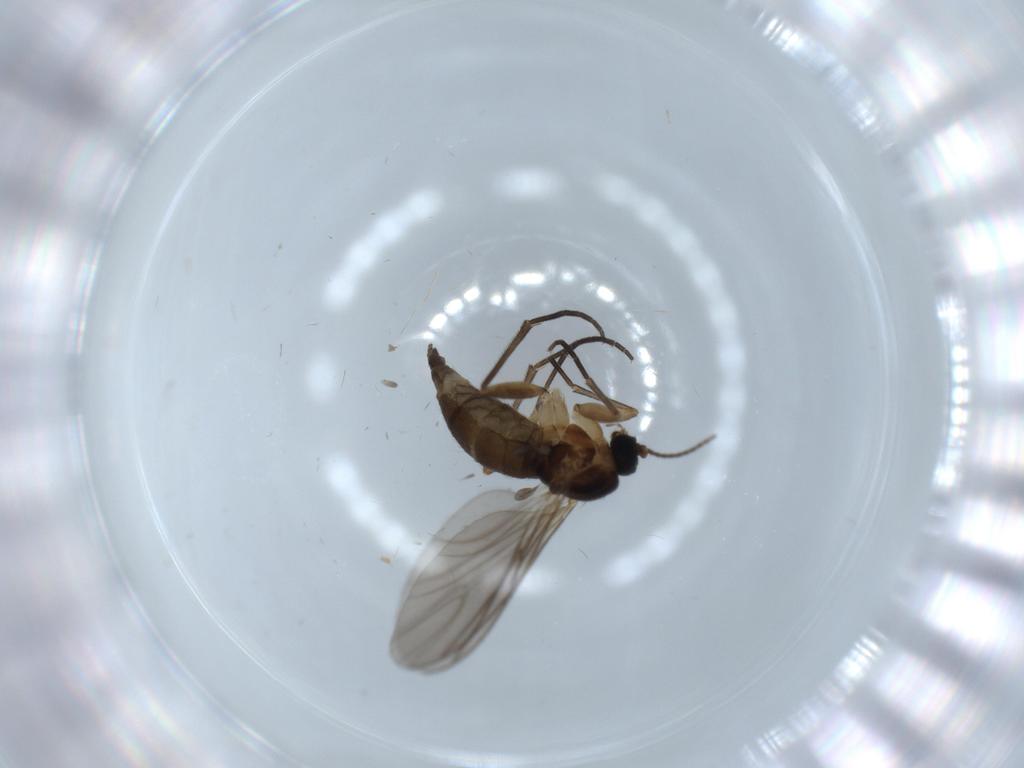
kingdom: Animalia
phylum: Arthropoda
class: Insecta
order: Diptera
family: Sciaridae
